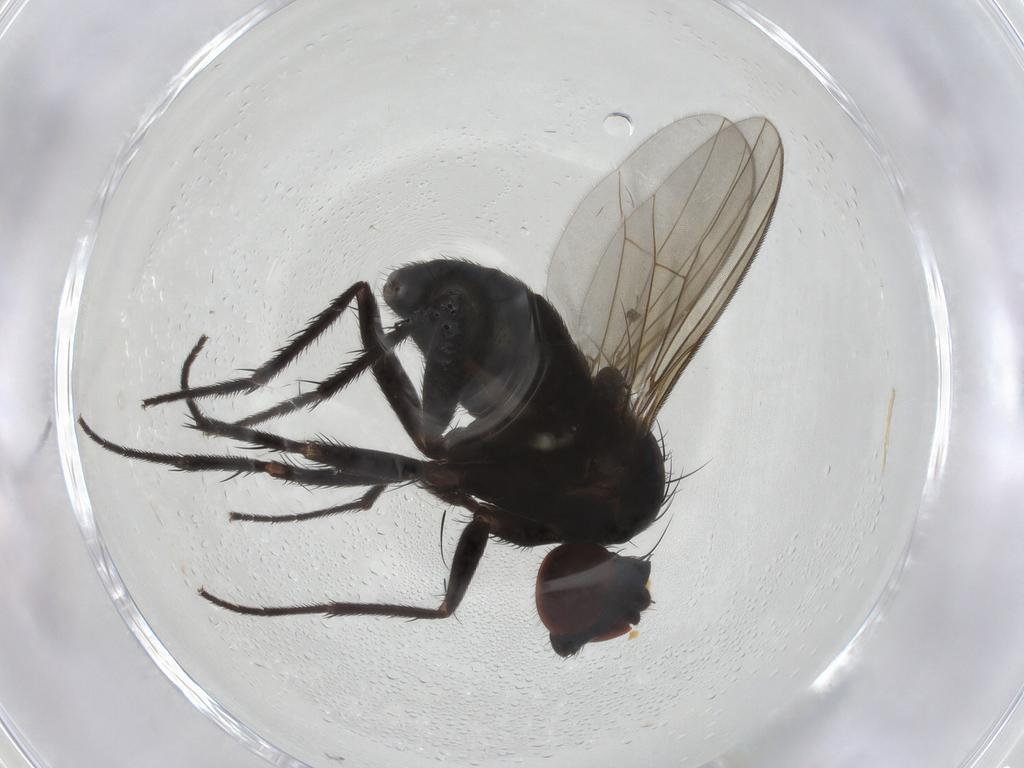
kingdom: Animalia
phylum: Arthropoda
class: Insecta
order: Diptera
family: Dolichopodidae
